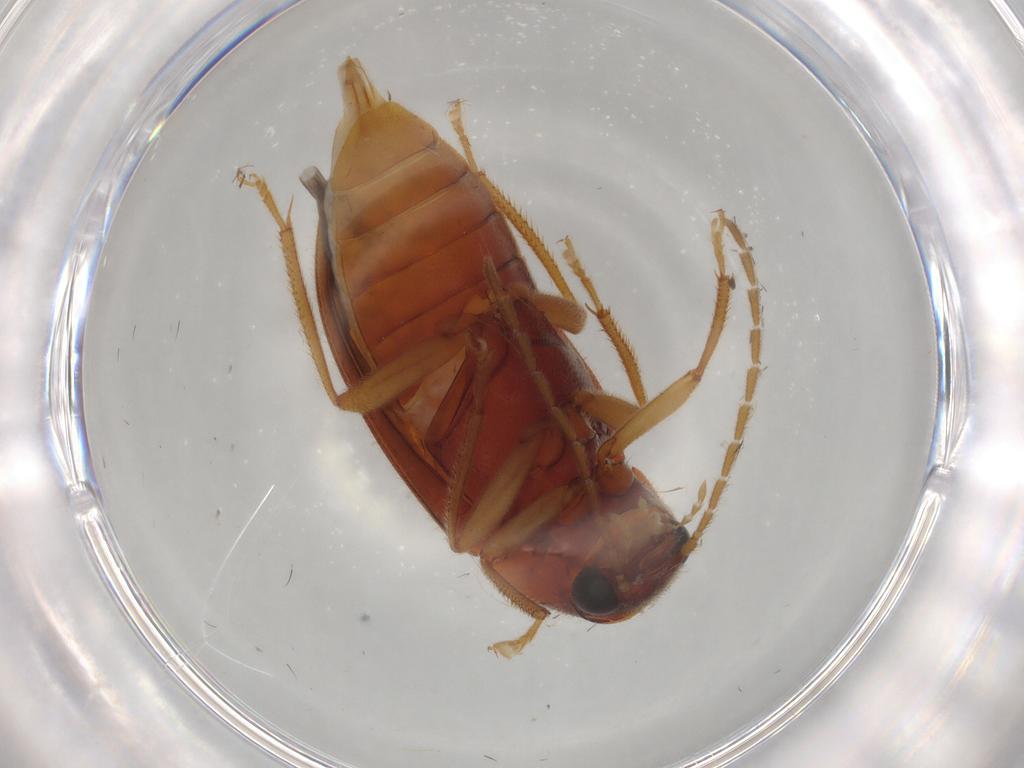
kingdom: Animalia
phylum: Arthropoda
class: Insecta
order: Coleoptera
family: Ptilodactylidae
